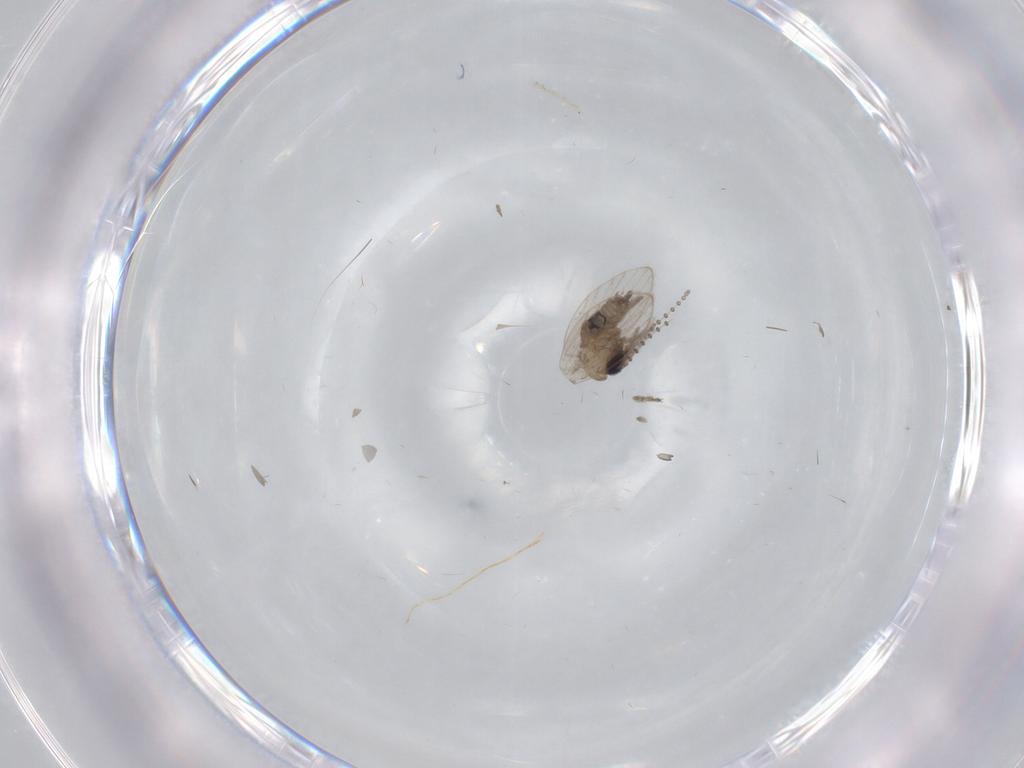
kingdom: Animalia
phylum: Arthropoda
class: Insecta
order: Diptera
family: Psychodidae
